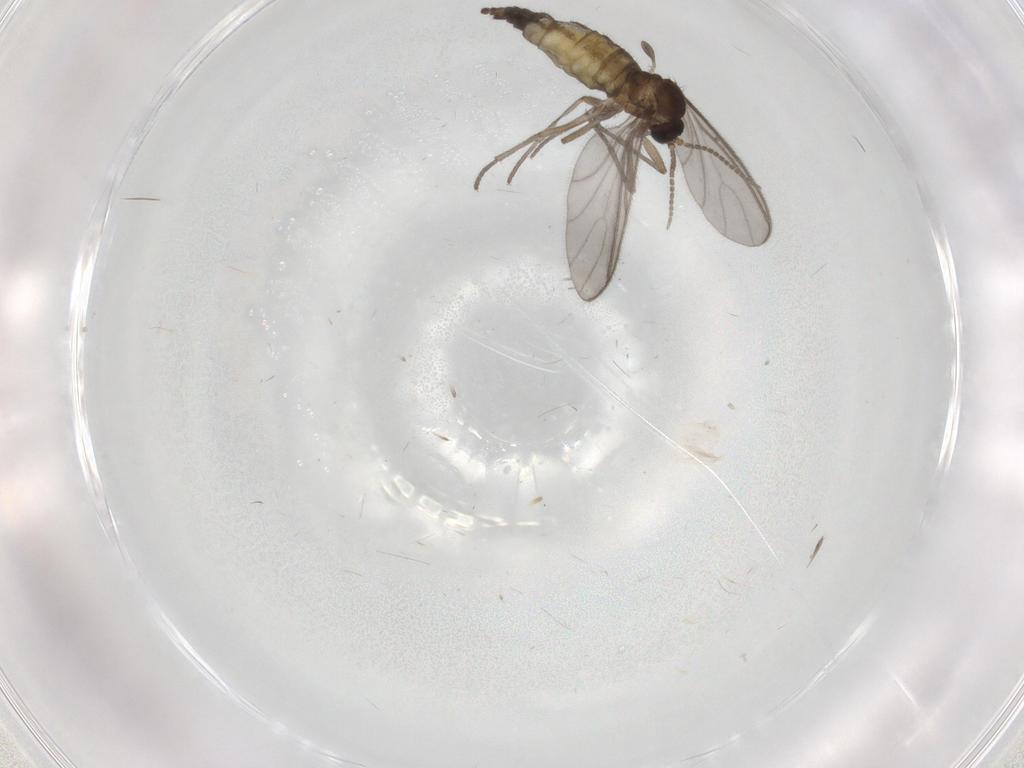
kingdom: Animalia
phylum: Arthropoda
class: Insecta
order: Diptera
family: Sciaridae
